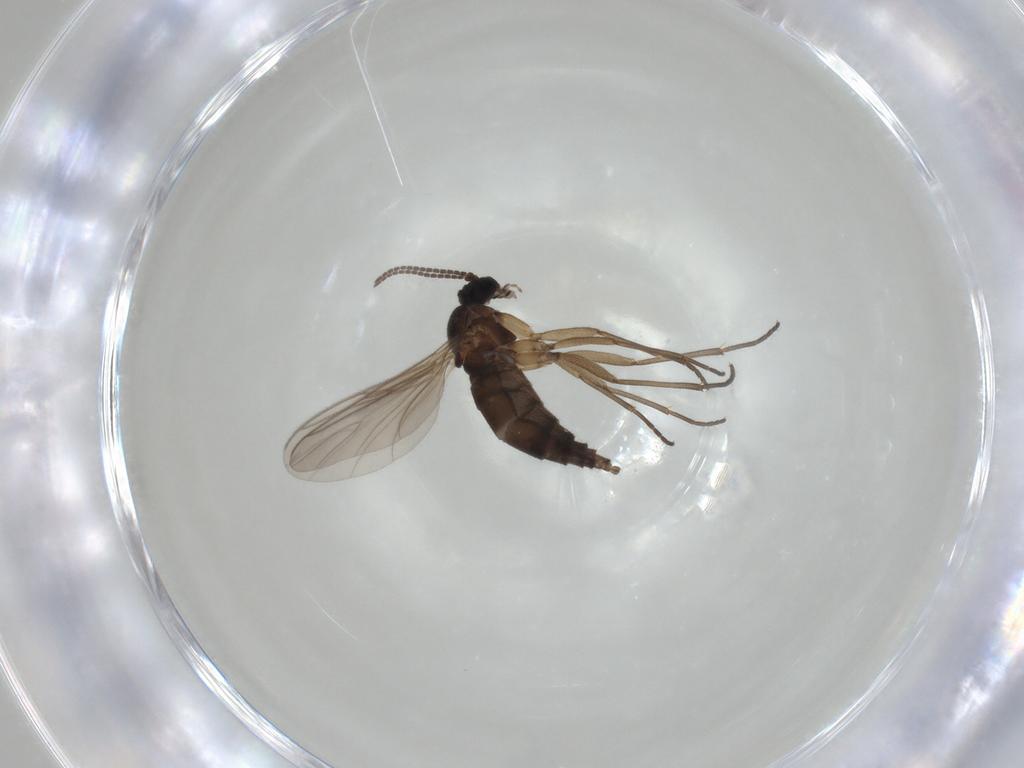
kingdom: Animalia
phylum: Arthropoda
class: Insecta
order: Diptera
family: Sciaridae
